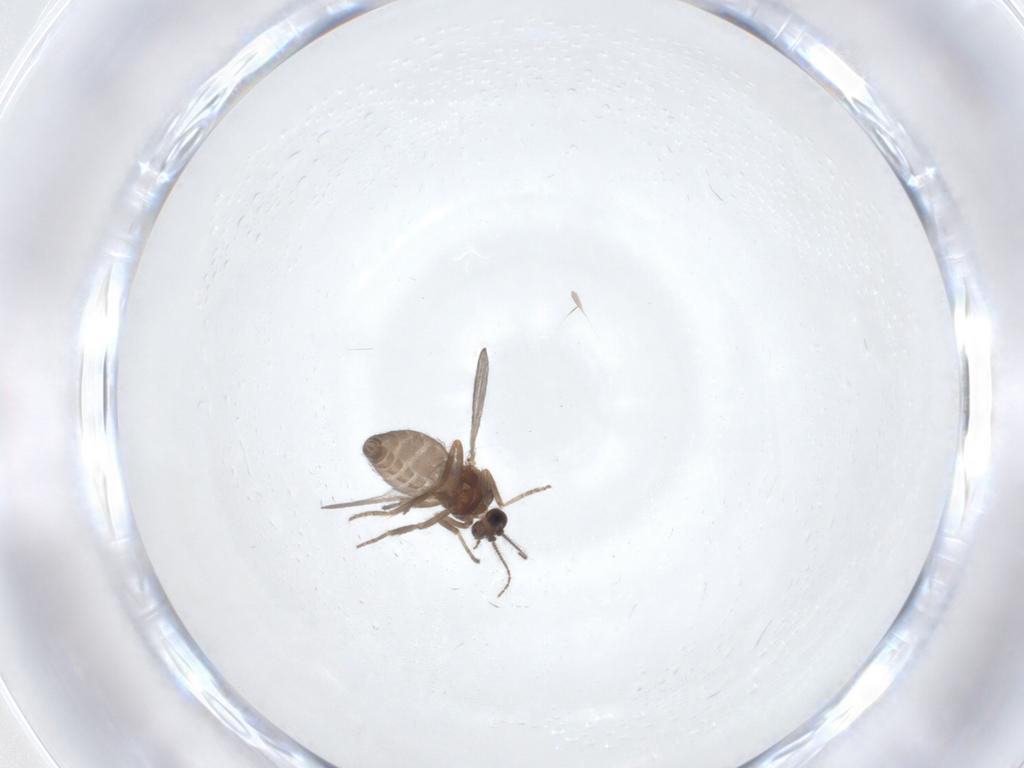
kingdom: Animalia
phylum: Arthropoda
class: Insecta
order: Diptera
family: Ceratopogonidae
